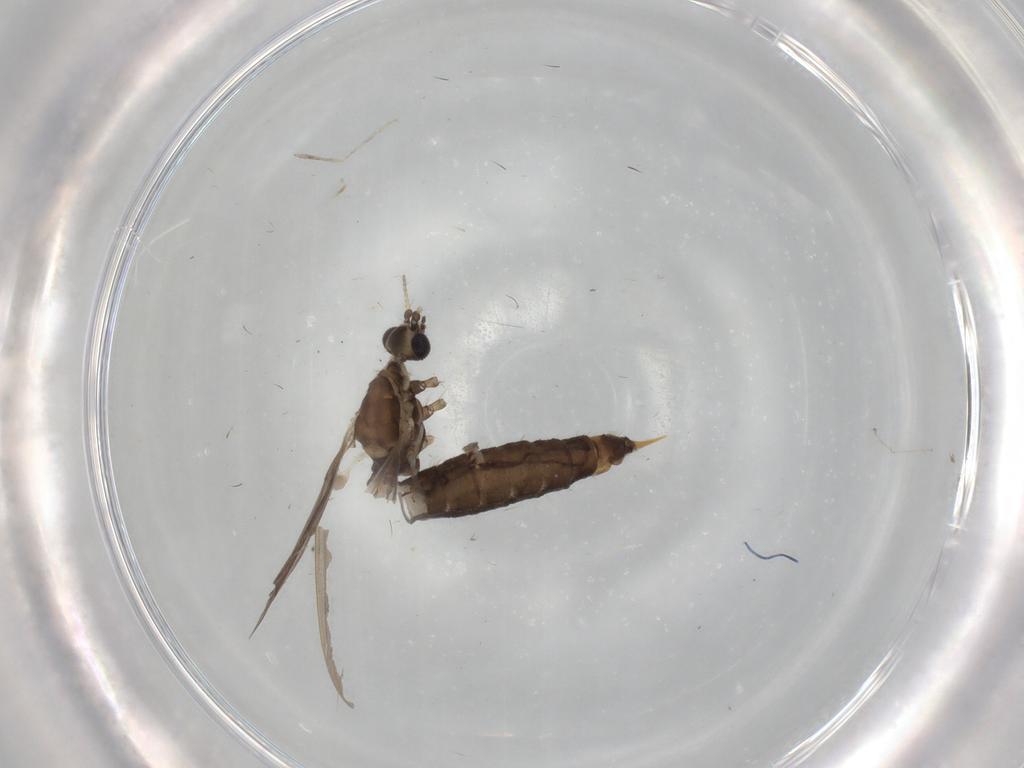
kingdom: Animalia
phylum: Arthropoda
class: Insecta
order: Diptera
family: Limoniidae
